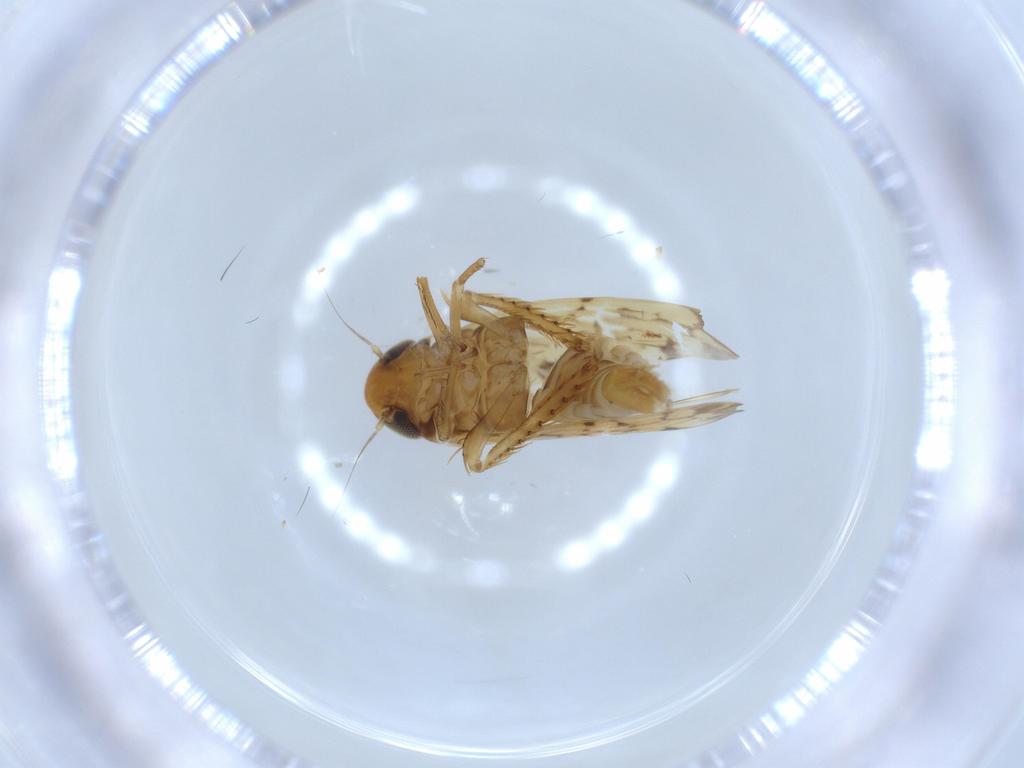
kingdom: Animalia
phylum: Arthropoda
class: Insecta
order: Hemiptera
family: Cicadellidae
